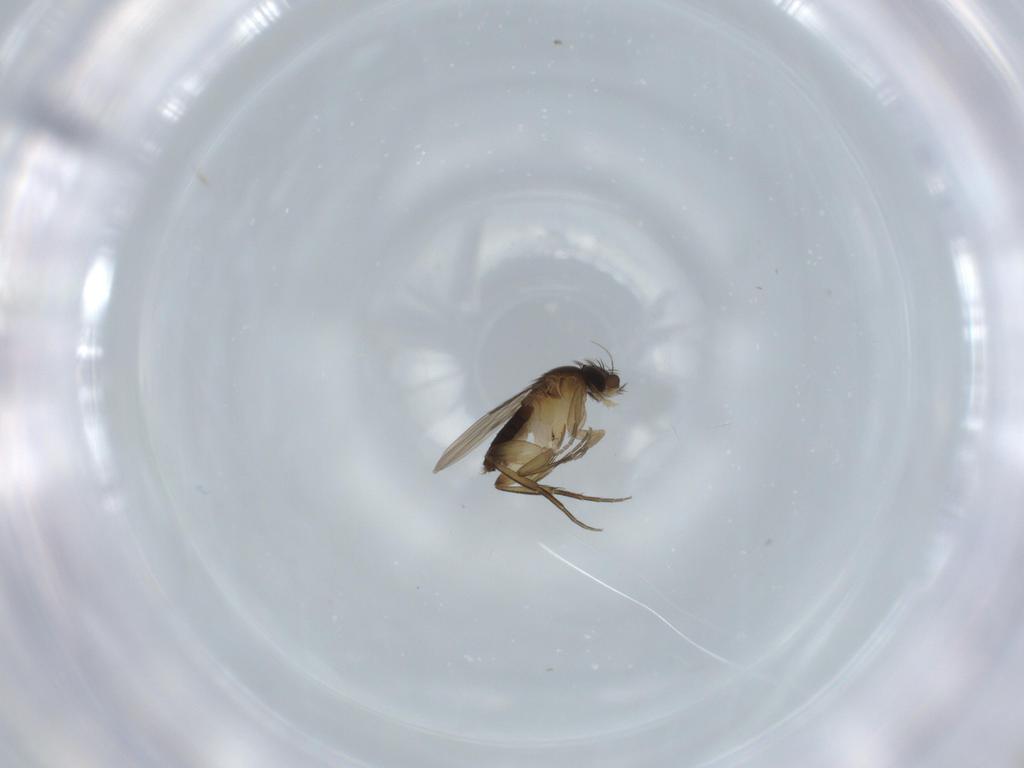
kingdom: Animalia
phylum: Arthropoda
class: Insecta
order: Diptera
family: Phoridae
